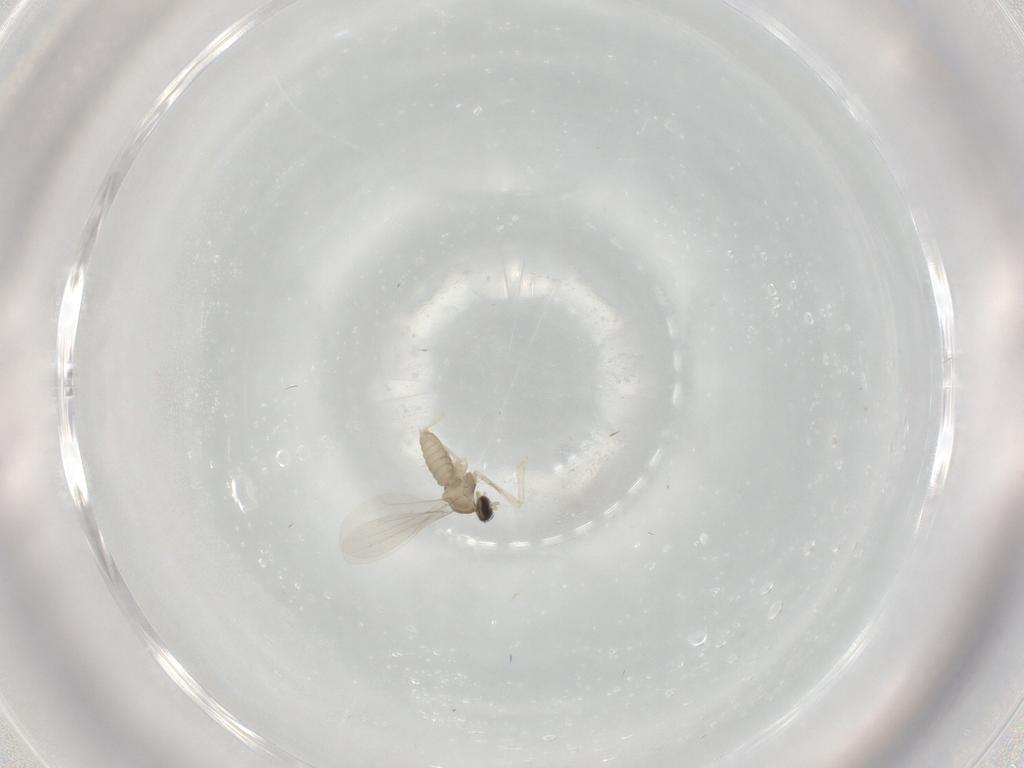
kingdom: Animalia
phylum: Arthropoda
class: Insecta
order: Diptera
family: Cecidomyiidae
